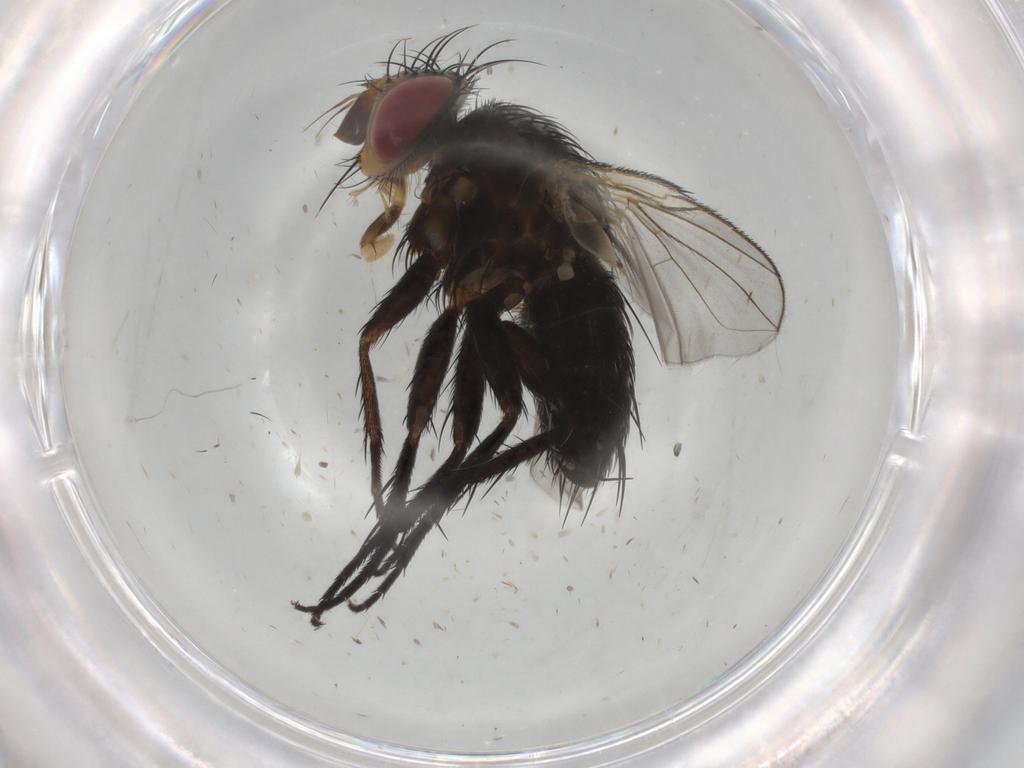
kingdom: Animalia
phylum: Arthropoda
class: Insecta
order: Diptera
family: Tachinidae
